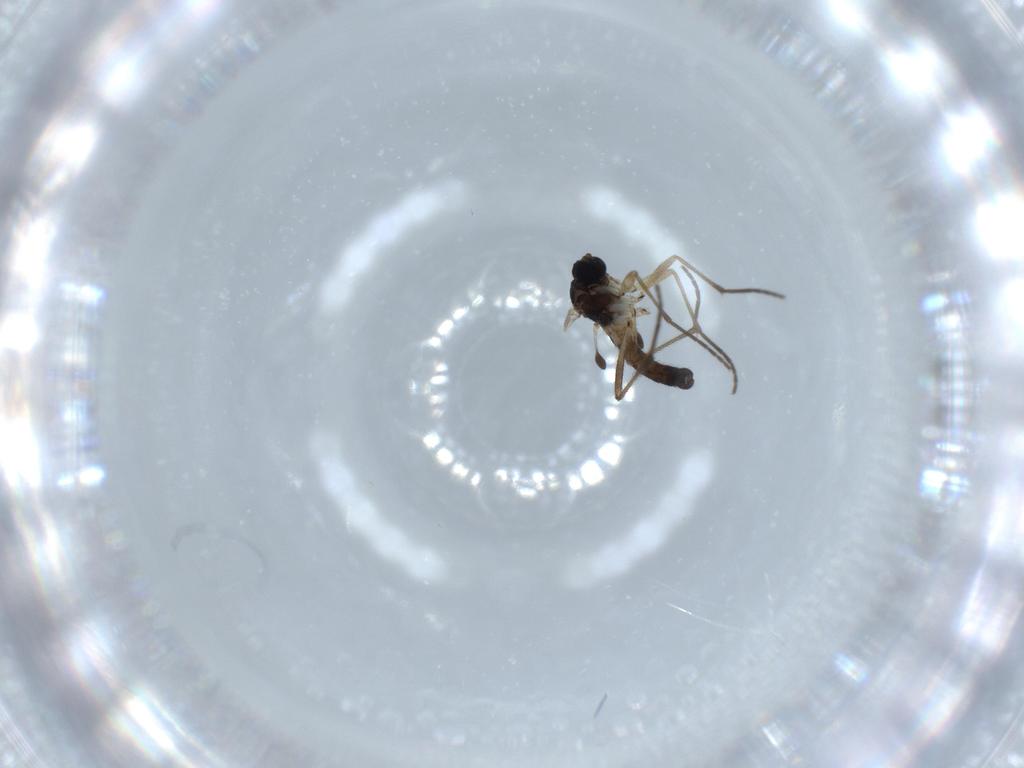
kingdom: Animalia
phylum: Arthropoda
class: Insecta
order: Diptera
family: Sciaridae
